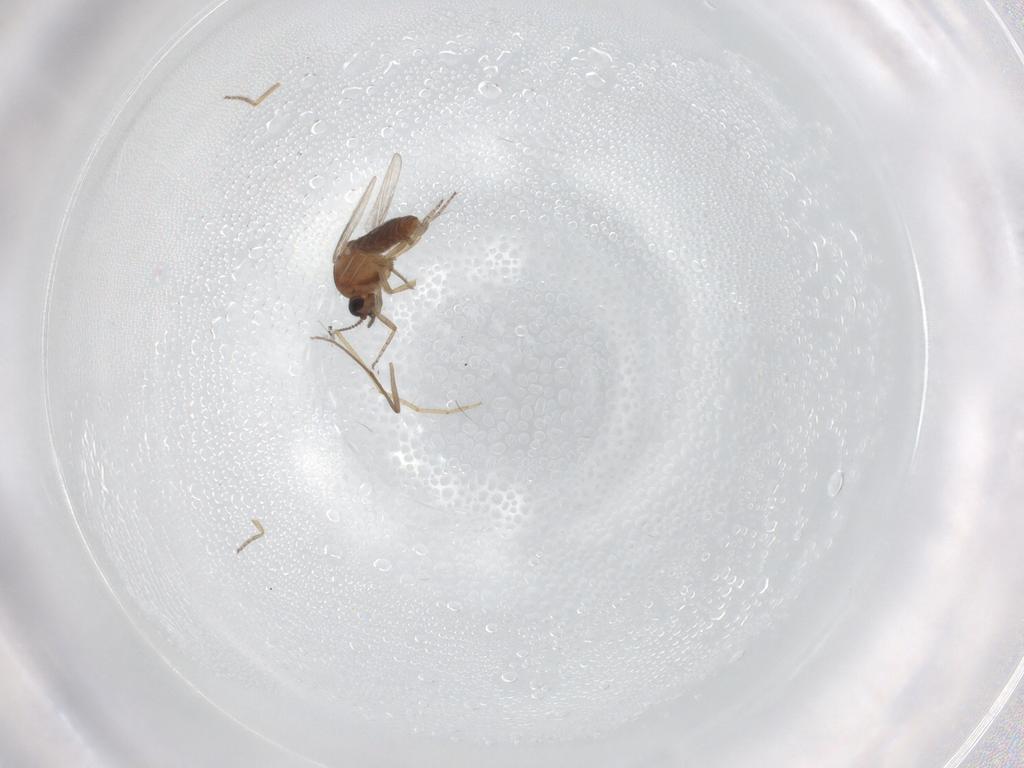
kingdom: Animalia
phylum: Arthropoda
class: Insecta
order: Diptera
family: Ceratopogonidae
